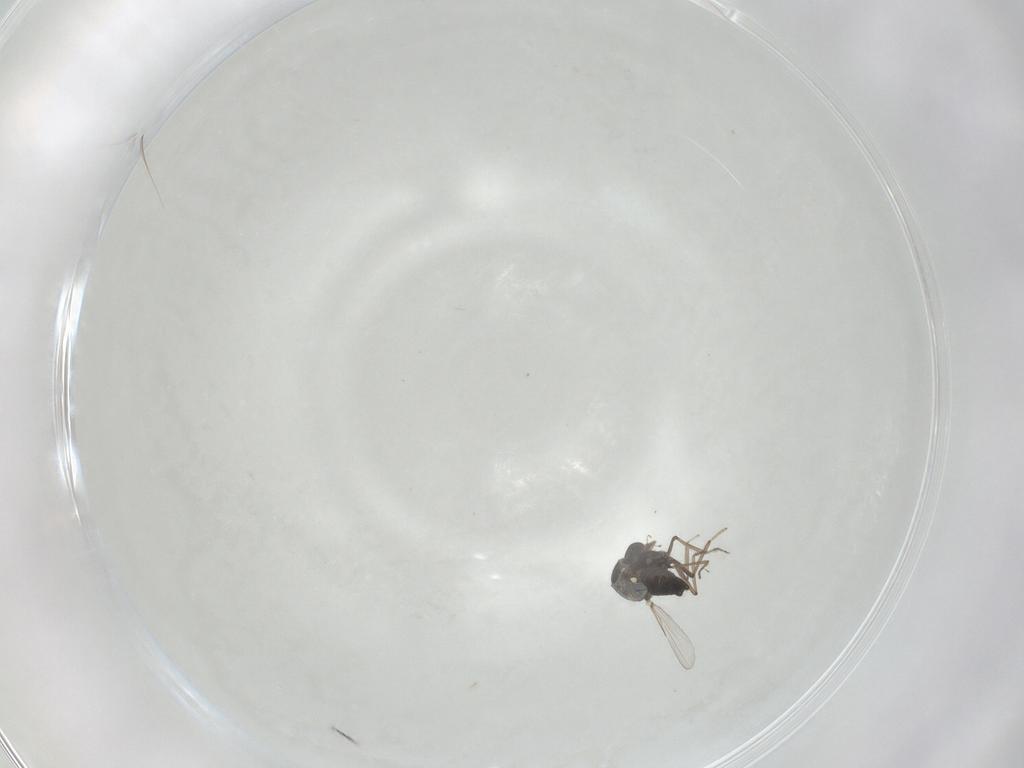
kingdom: Animalia
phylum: Arthropoda
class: Insecta
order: Diptera
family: Ceratopogonidae
